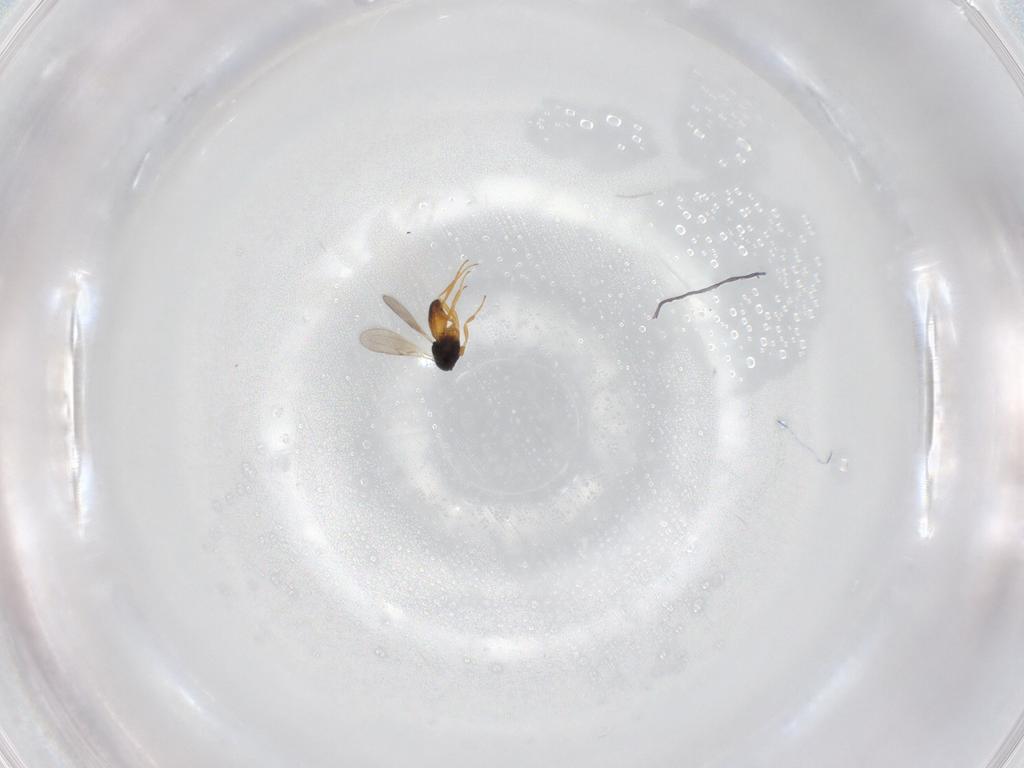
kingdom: Animalia
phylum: Arthropoda
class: Insecta
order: Hymenoptera
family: Scelionidae
